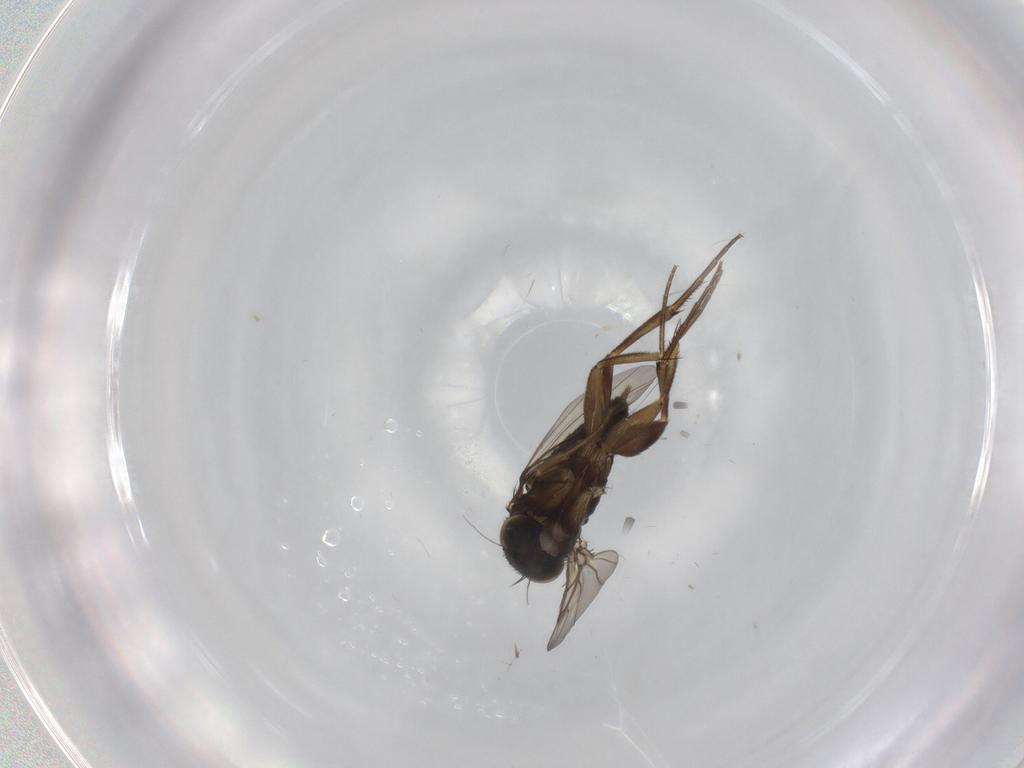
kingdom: Animalia
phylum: Arthropoda
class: Insecta
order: Diptera
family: Phoridae
